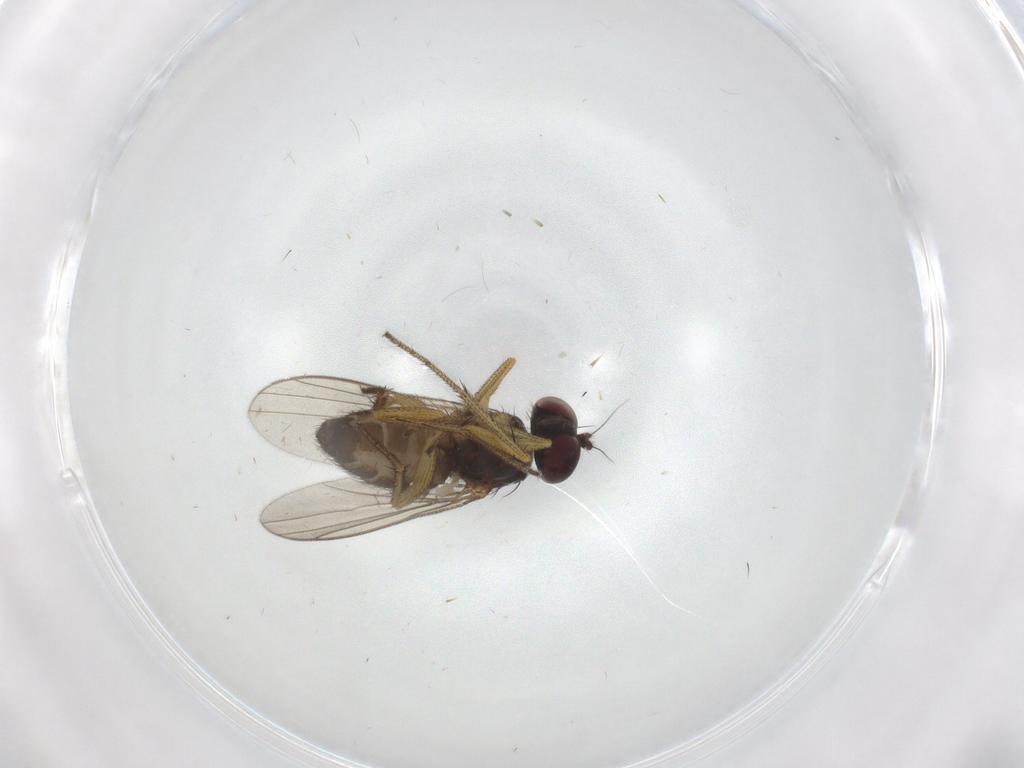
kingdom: Animalia
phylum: Arthropoda
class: Insecta
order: Diptera
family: Dolichopodidae
